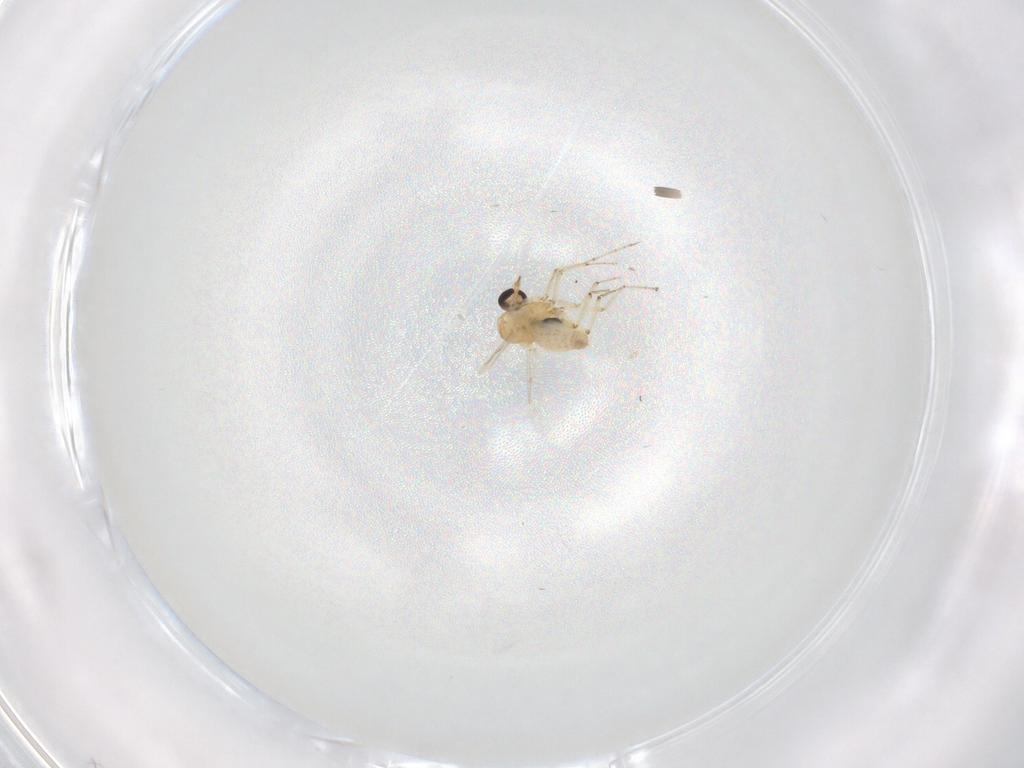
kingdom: Animalia
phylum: Arthropoda
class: Insecta
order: Diptera
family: Ceratopogonidae
